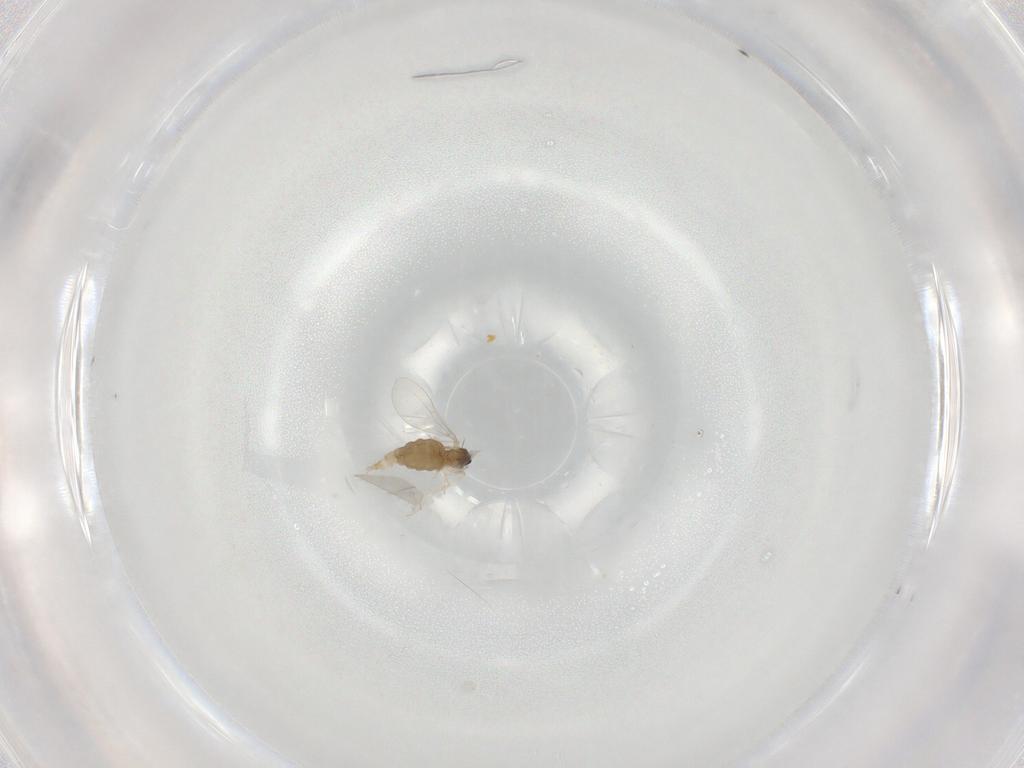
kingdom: Animalia
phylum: Arthropoda
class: Insecta
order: Diptera
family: Cecidomyiidae
